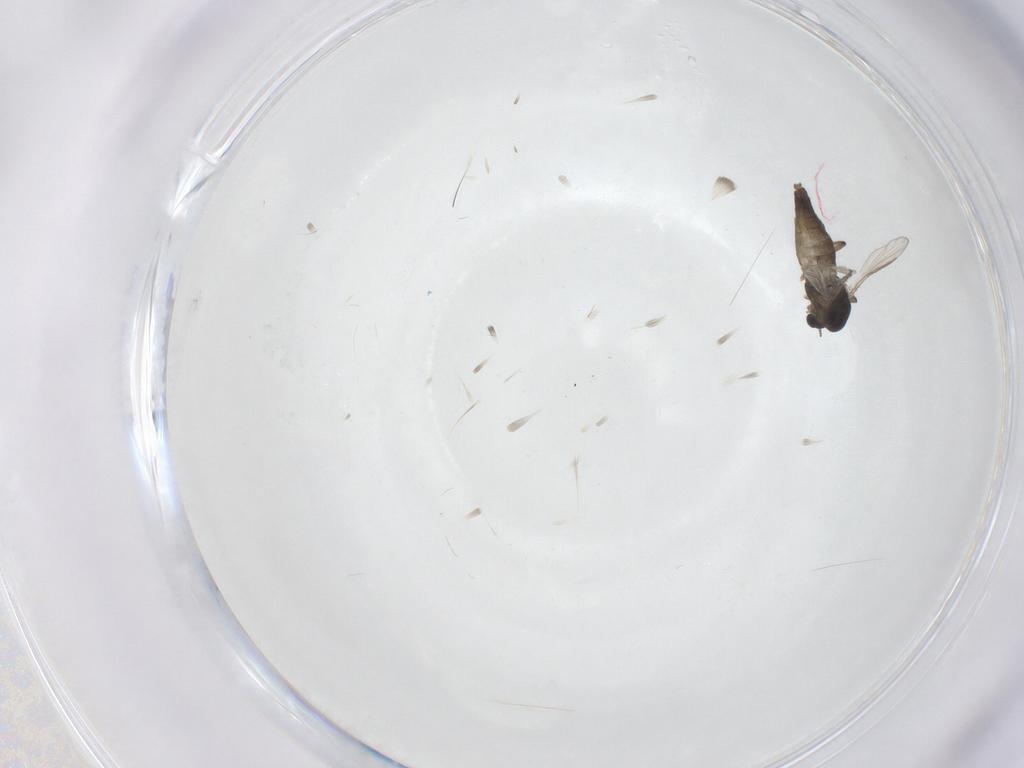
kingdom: Animalia
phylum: Arthropoda
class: Insecta
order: Diptera
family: Chironomidae
